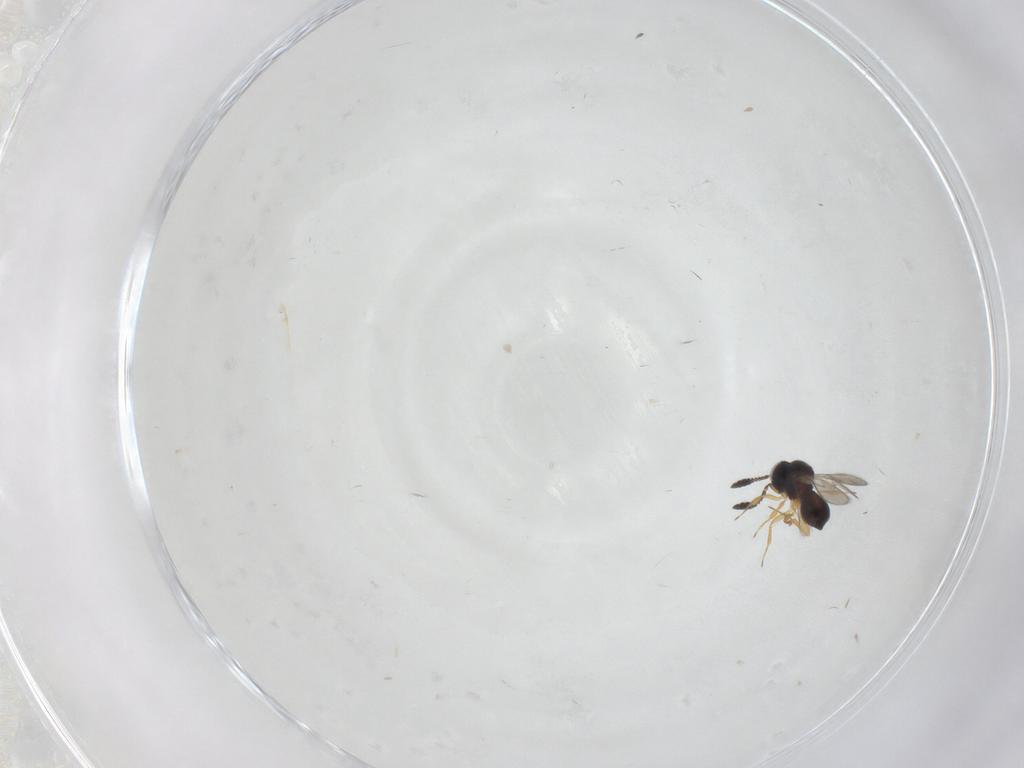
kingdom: Animalia
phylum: Arthropoda
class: Insecta
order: Hymenoptera
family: Scelionidae
